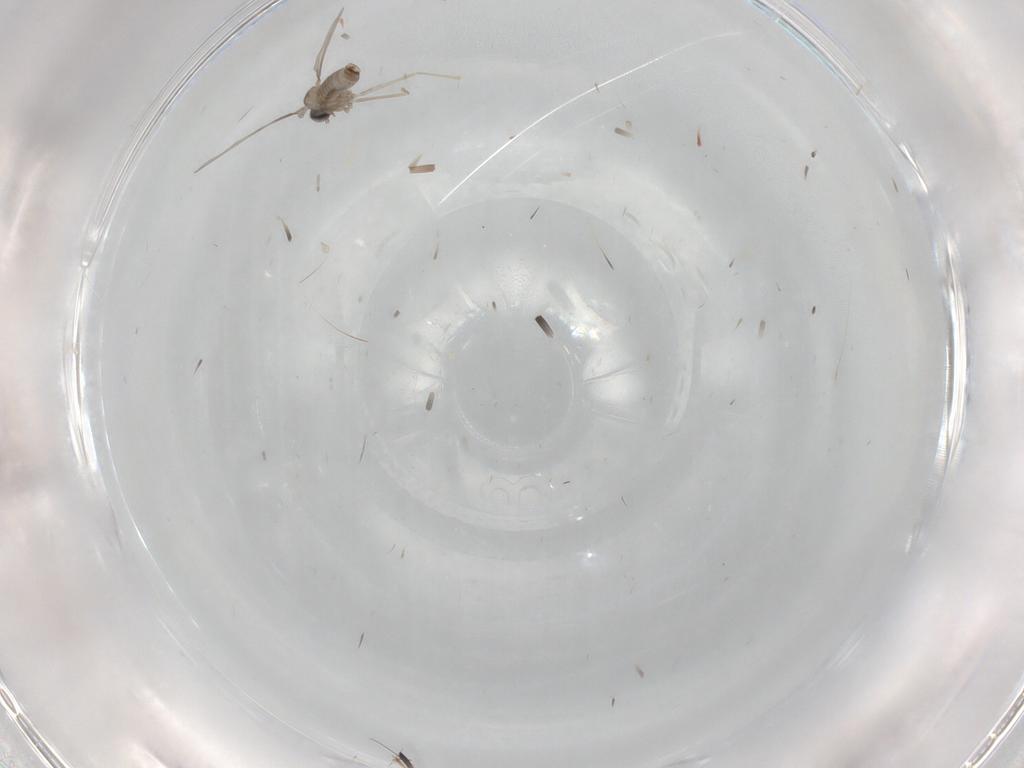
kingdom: Animalia
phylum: Arthropoda
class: Insecta
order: Diptera
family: Cecidomyiidae
